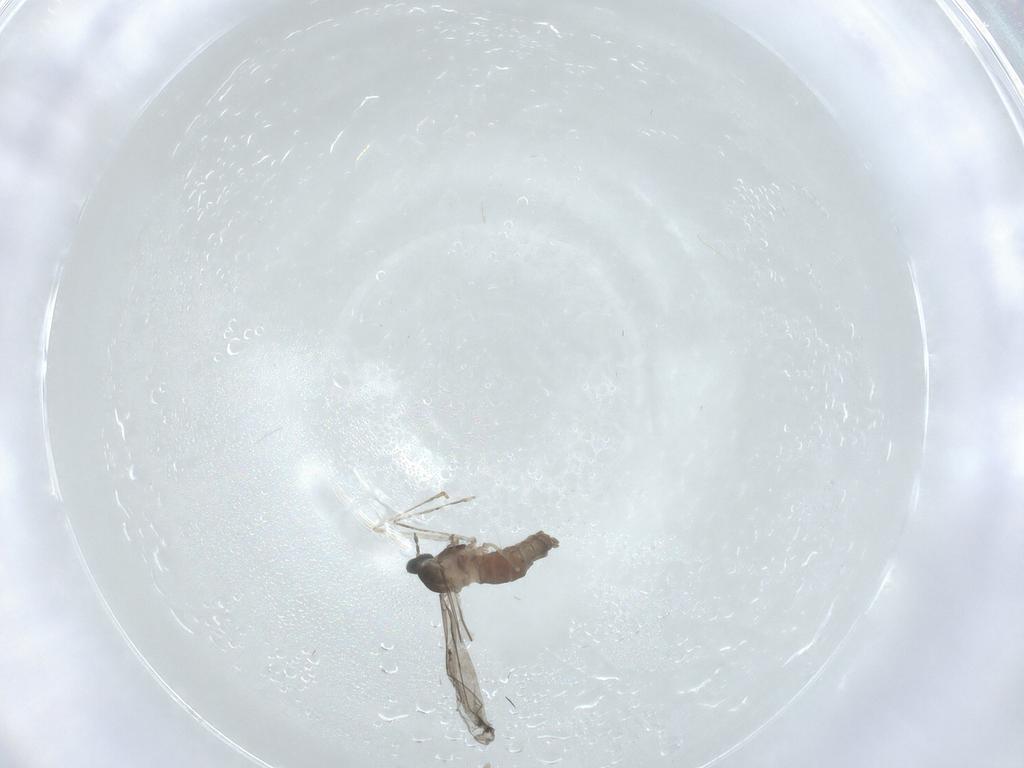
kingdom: Animalia
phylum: Arthropoda
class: Insecta
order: Diptera
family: Cecidomyiidae
